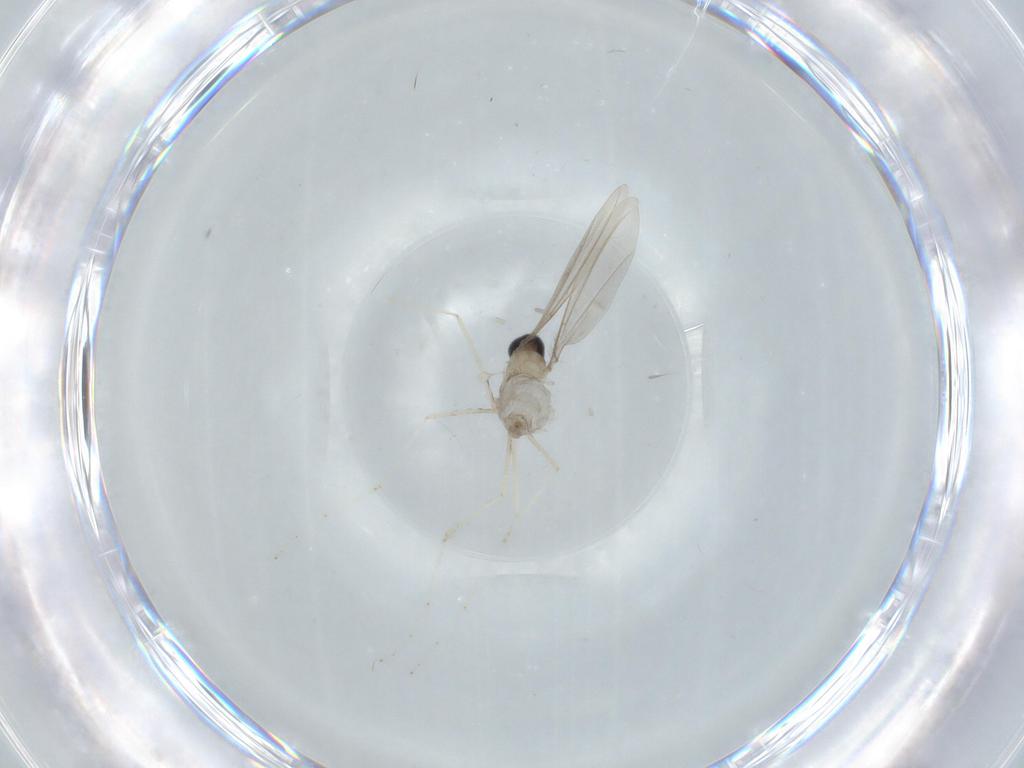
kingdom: Animalia
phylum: Arthropoda
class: Insecta
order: Diptera
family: Cecidomyiidae
